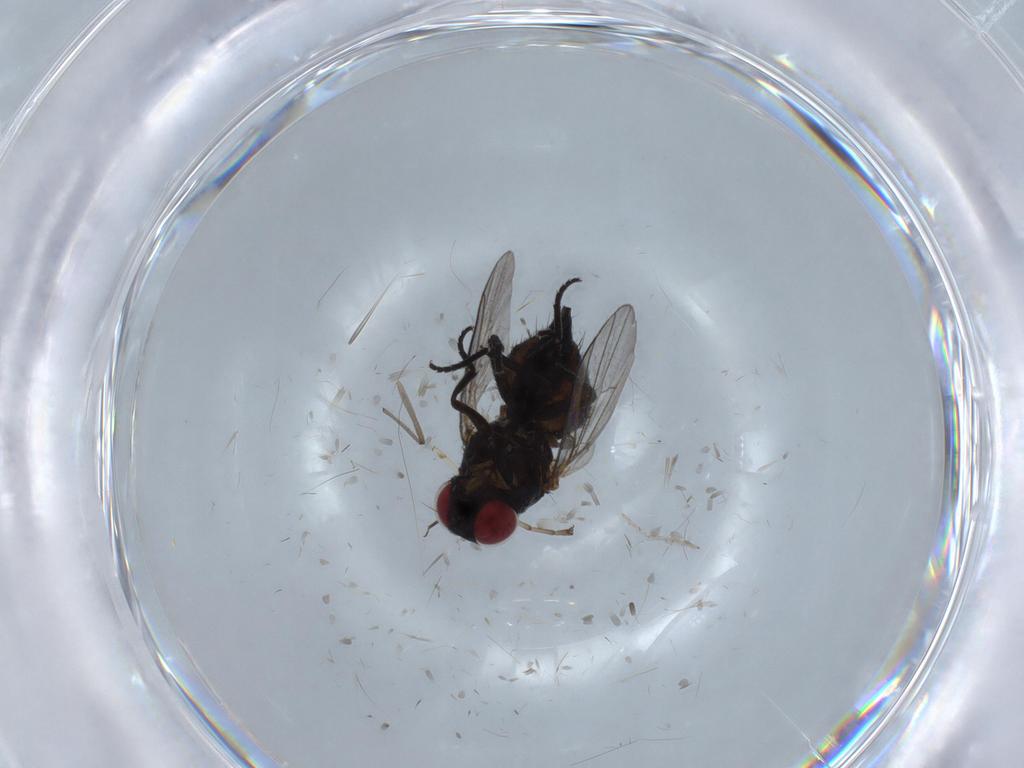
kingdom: Animalia
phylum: Arthropoda
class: Insecta
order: Diptera
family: Agromyzidae
